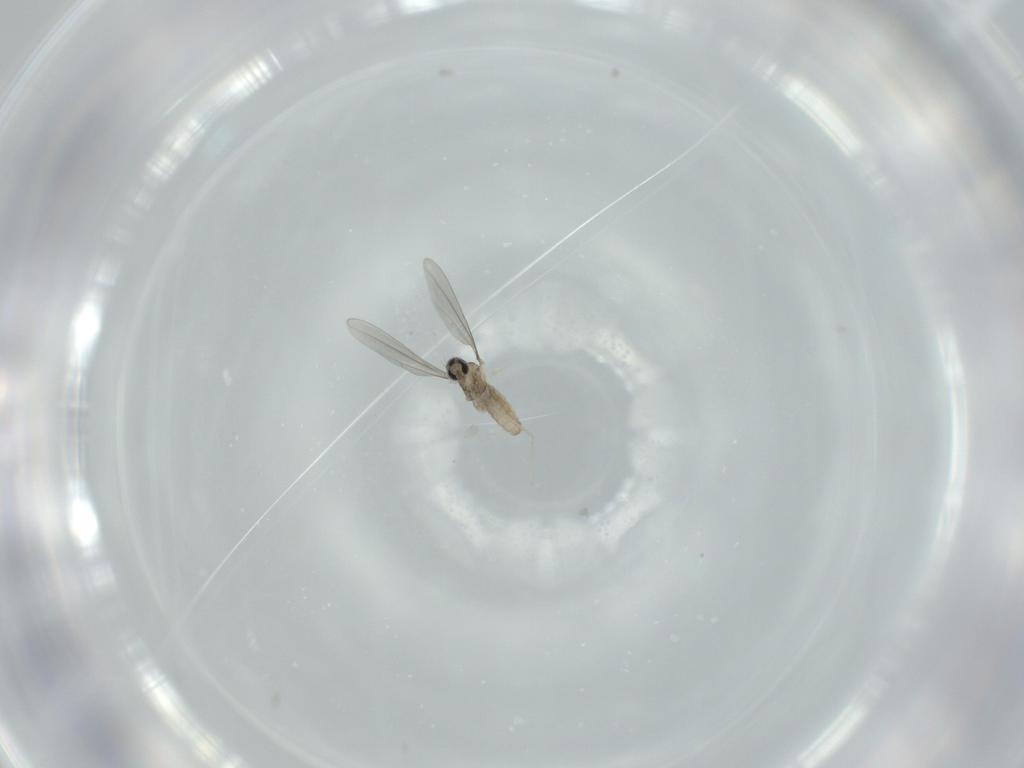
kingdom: Animalia
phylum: Arthropoda
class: Insecta
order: Diptera
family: Cecidomyiidae
